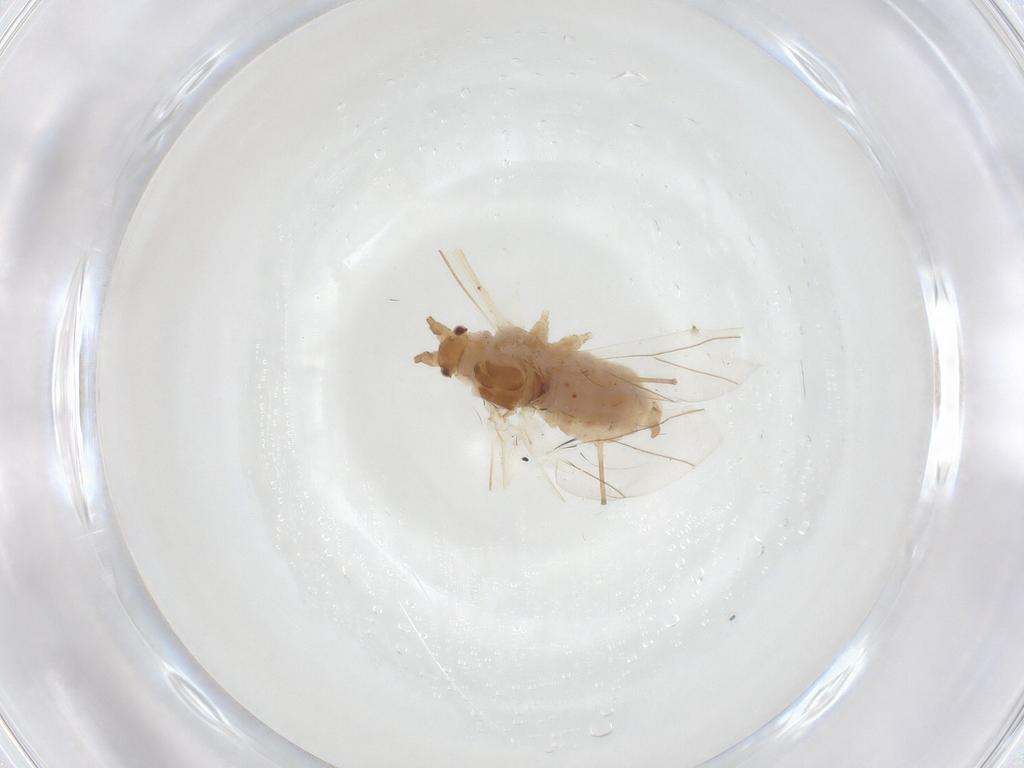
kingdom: Animalia
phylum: Arthropoda
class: Insecta
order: Hemiptera
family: Aphididae
